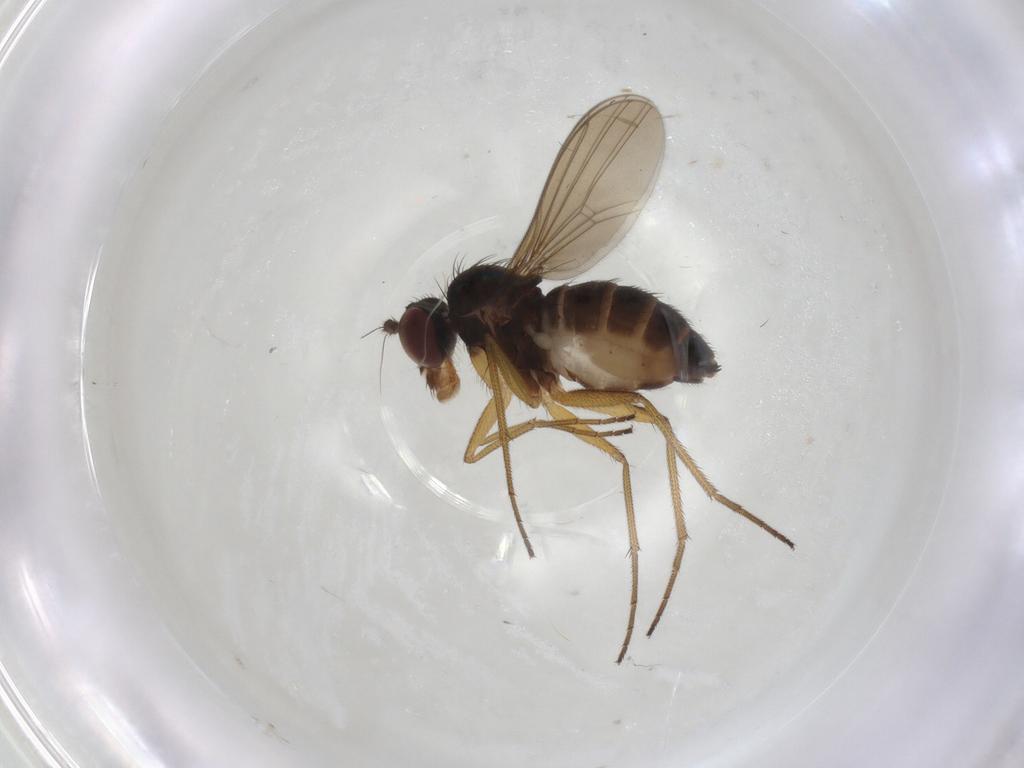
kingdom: Animalia
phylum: Arthropoda
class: Insecta
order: Diptera
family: Dolichopodidae
